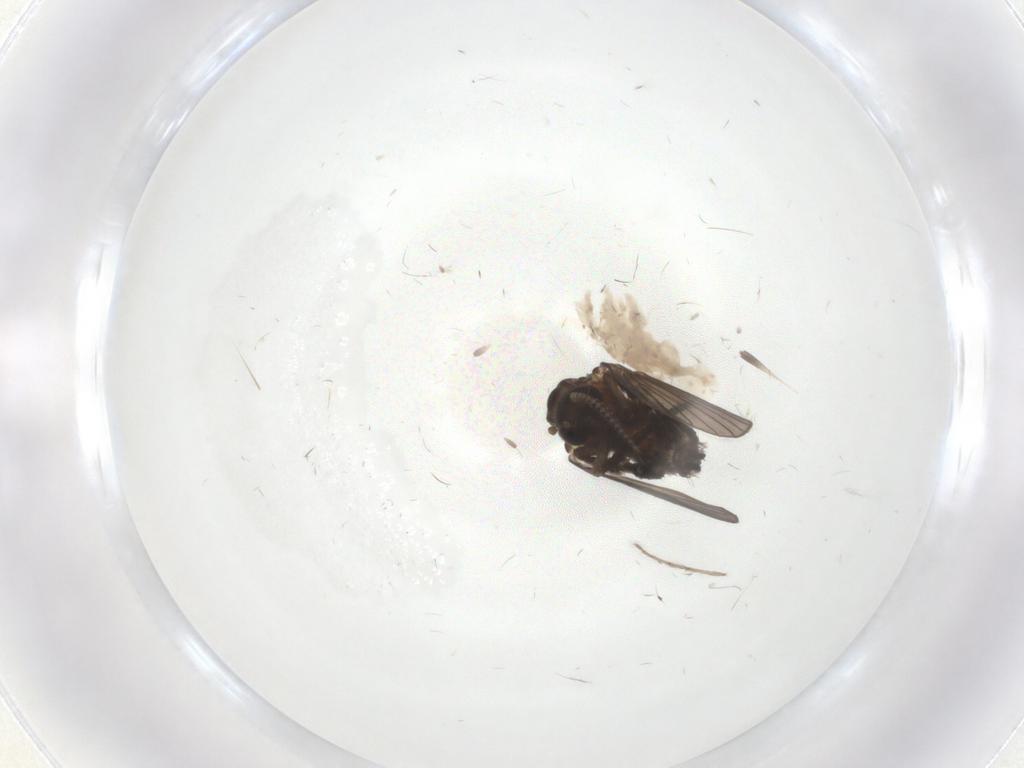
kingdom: Animalia
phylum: Arthropoda
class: Insecta
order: Diptera
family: Psychodidae
